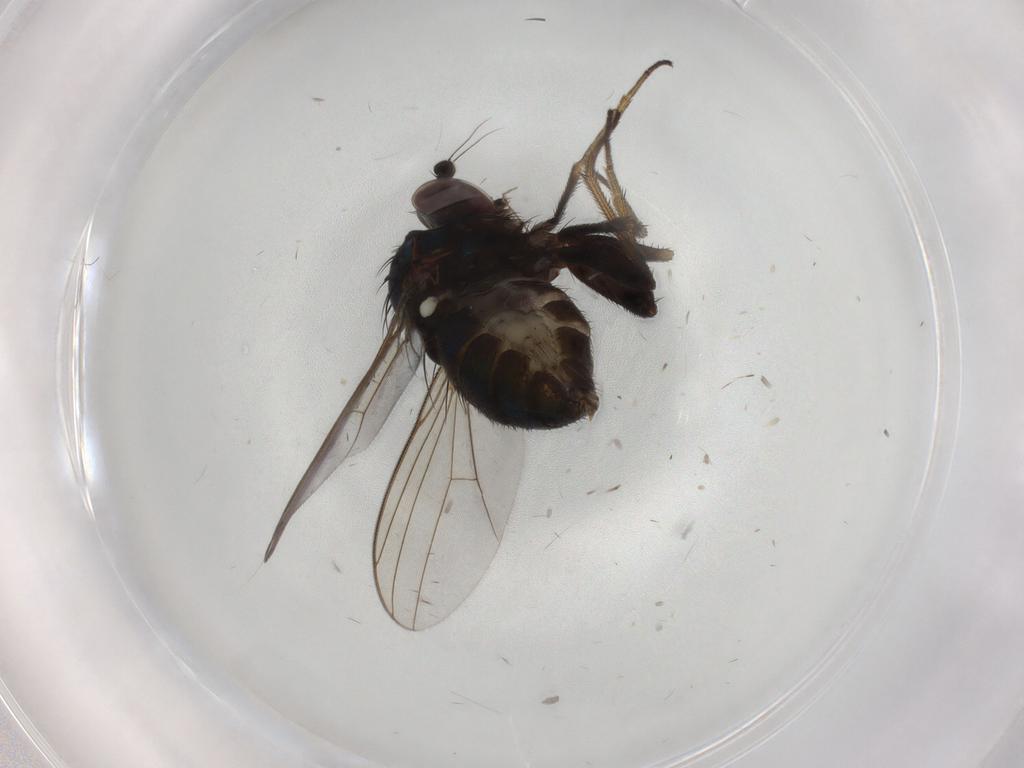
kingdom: Animalia
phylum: Arthropoda
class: Insecta
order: Diptera
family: Dolichopodidae
